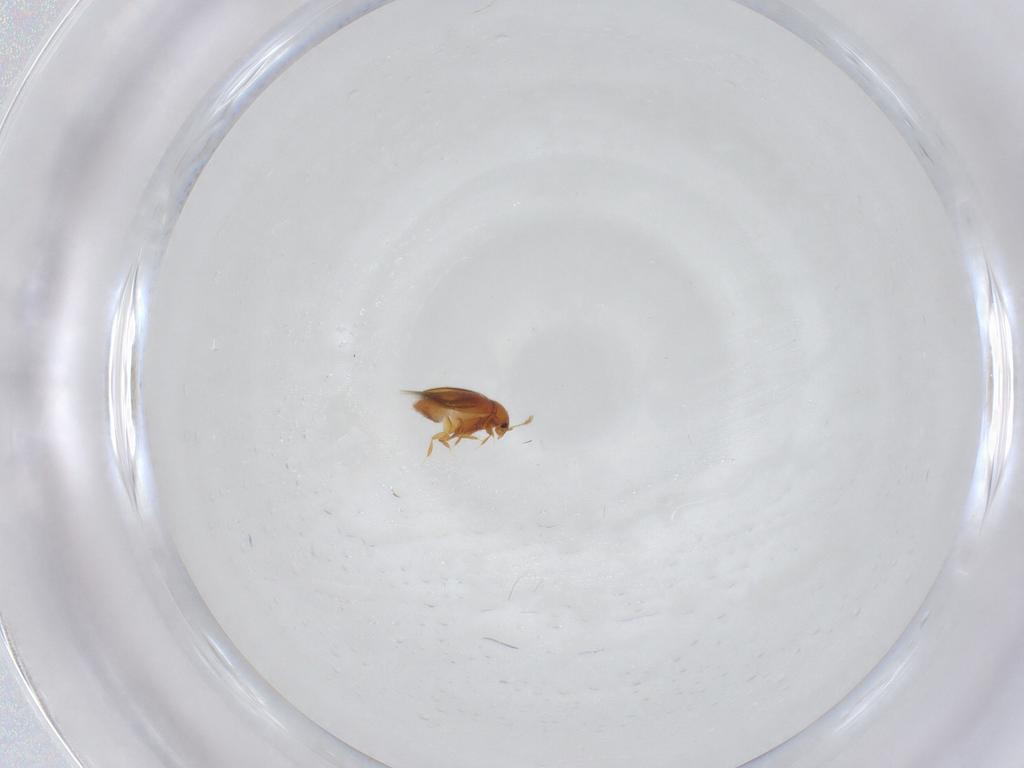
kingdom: Animalia
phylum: Arthropoda
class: Insecta
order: Coleoptera
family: Ptiliidae
